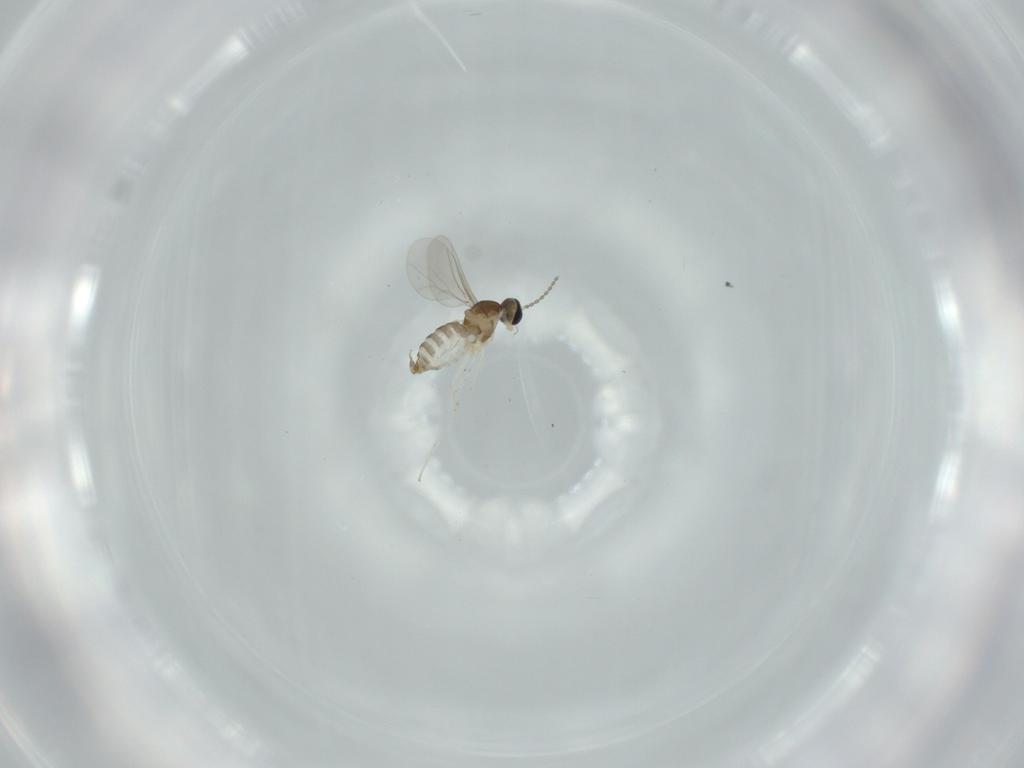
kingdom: Animalia
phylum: Arthropoda
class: Insecta
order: Diptera
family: Cecidomyiidae
